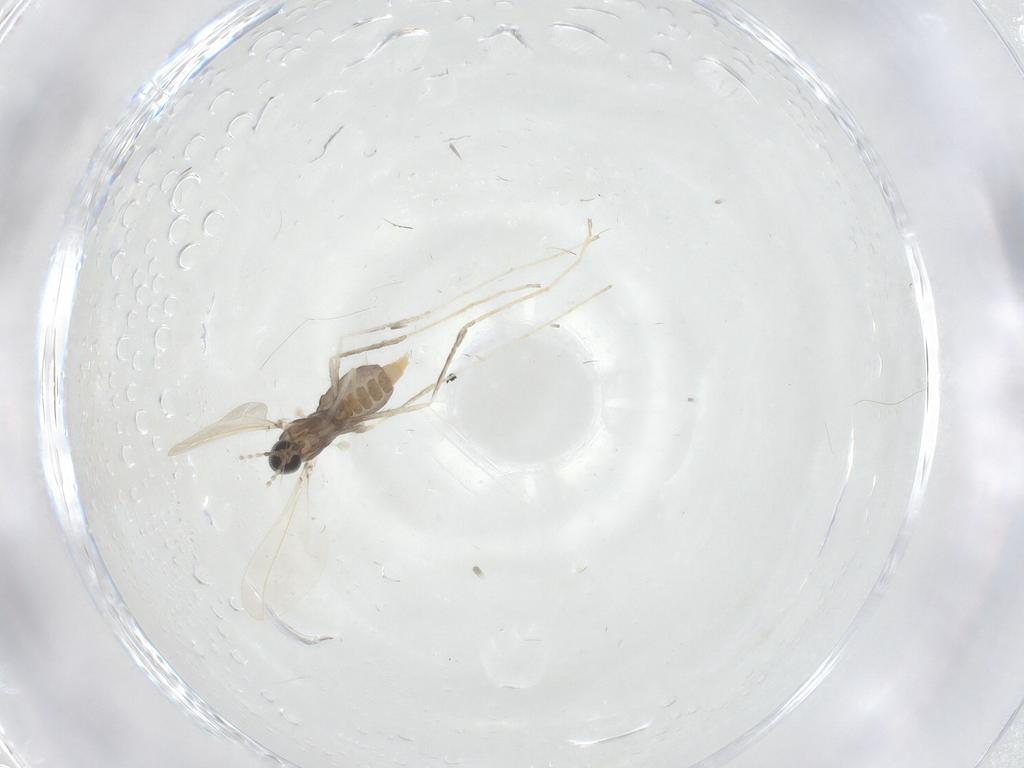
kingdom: Animalia
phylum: Arthropoda
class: Insecta
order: Diptera
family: Cecidomyiidae
